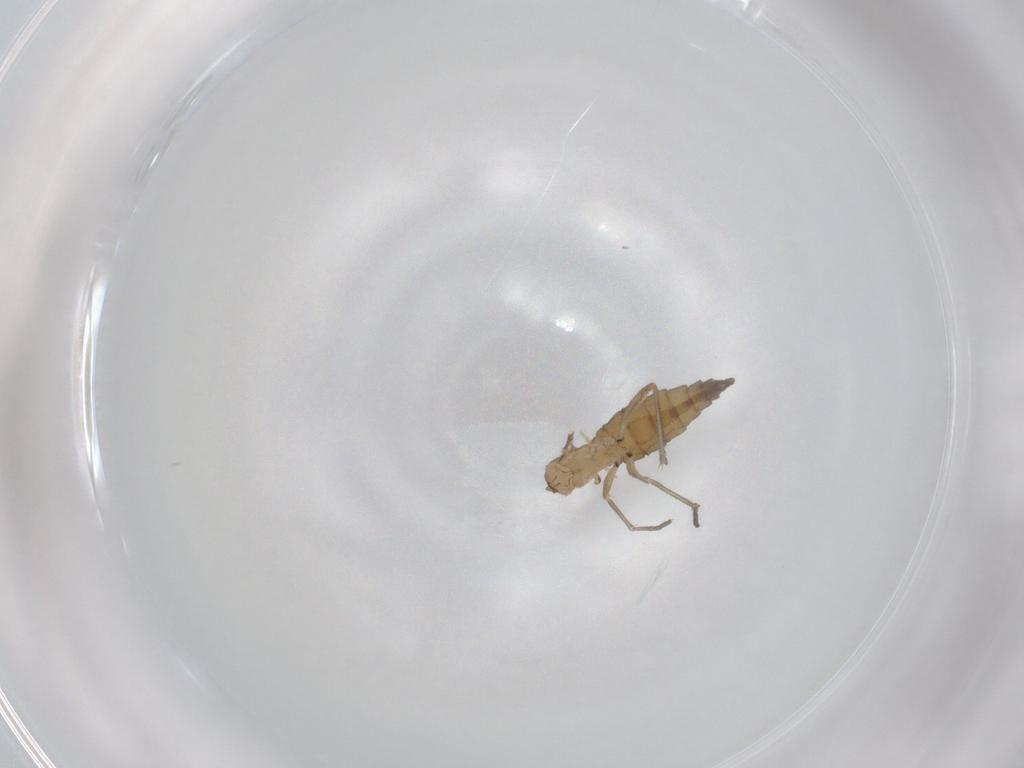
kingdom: Animalia
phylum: Arthropoda
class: Insecta
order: Diptera
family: Sciaridae
